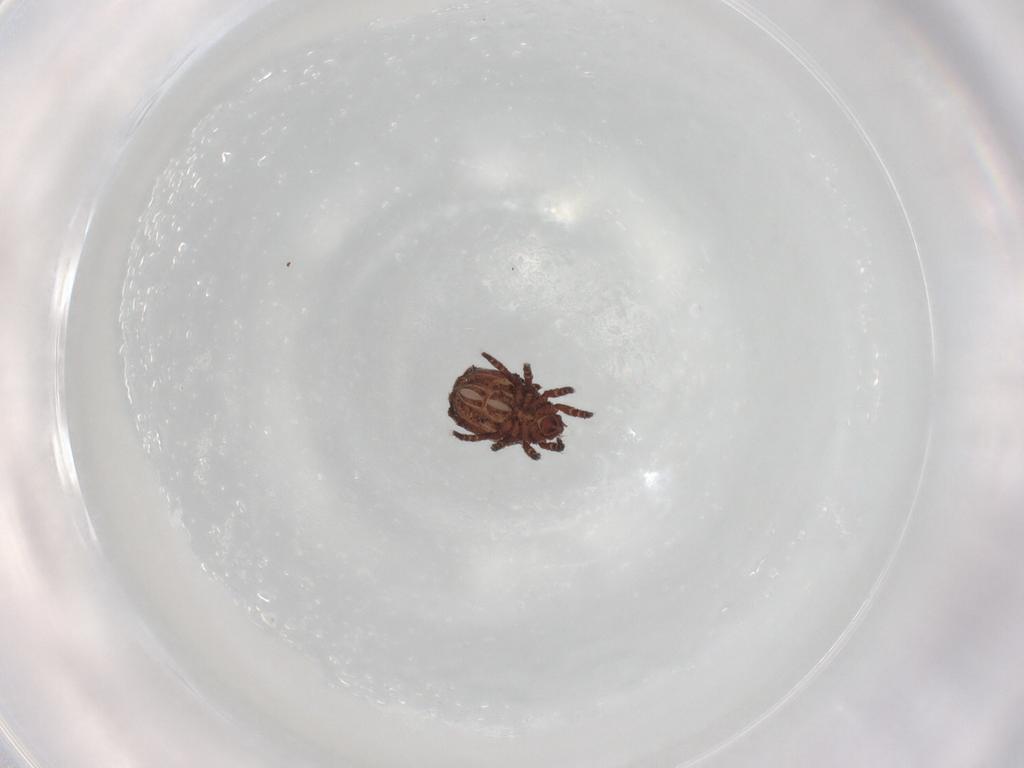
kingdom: Animalia
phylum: Arthropoda
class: Arachnida
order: Sarcoptiformes
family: Crotoniidae
